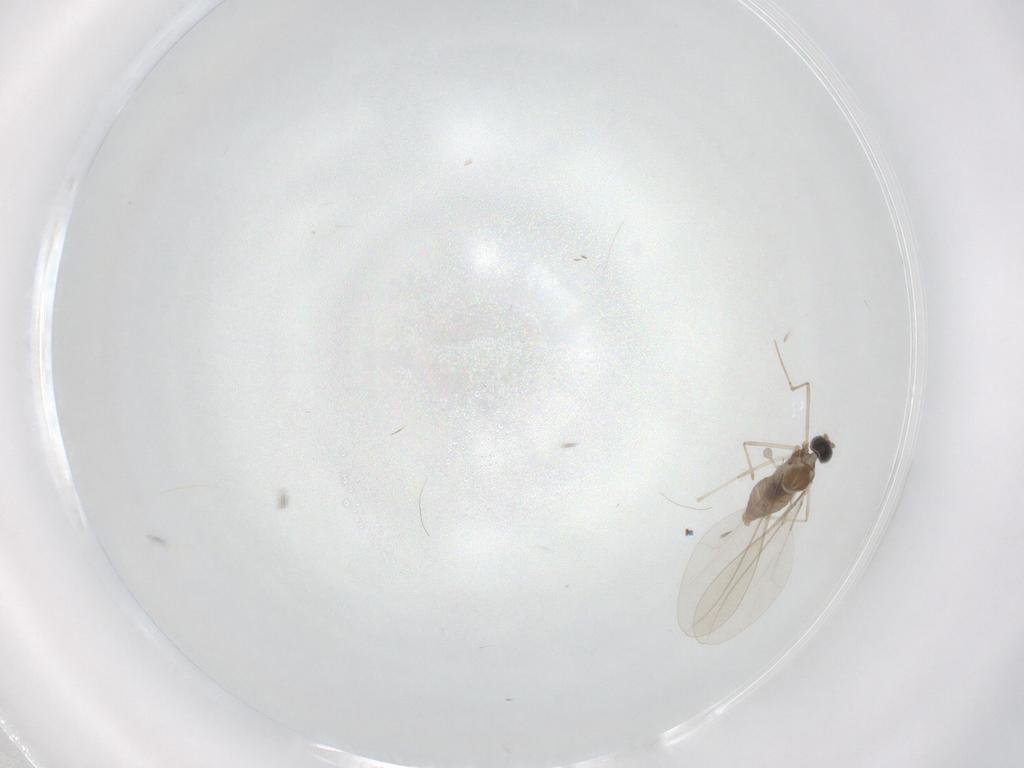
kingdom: Animalia
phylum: Arthropoda
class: Insecta
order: Diptera
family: Cecidomyiidae
